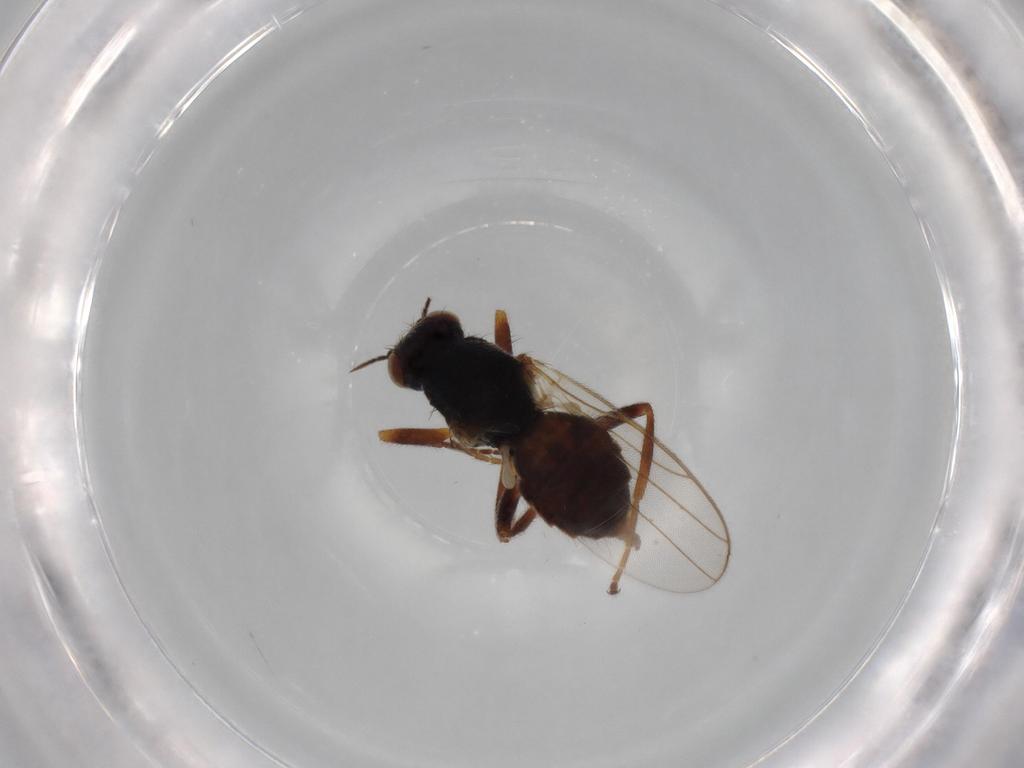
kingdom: Animalia
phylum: Arthropoda
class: Insecta
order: Diptera
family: Chloropidae
